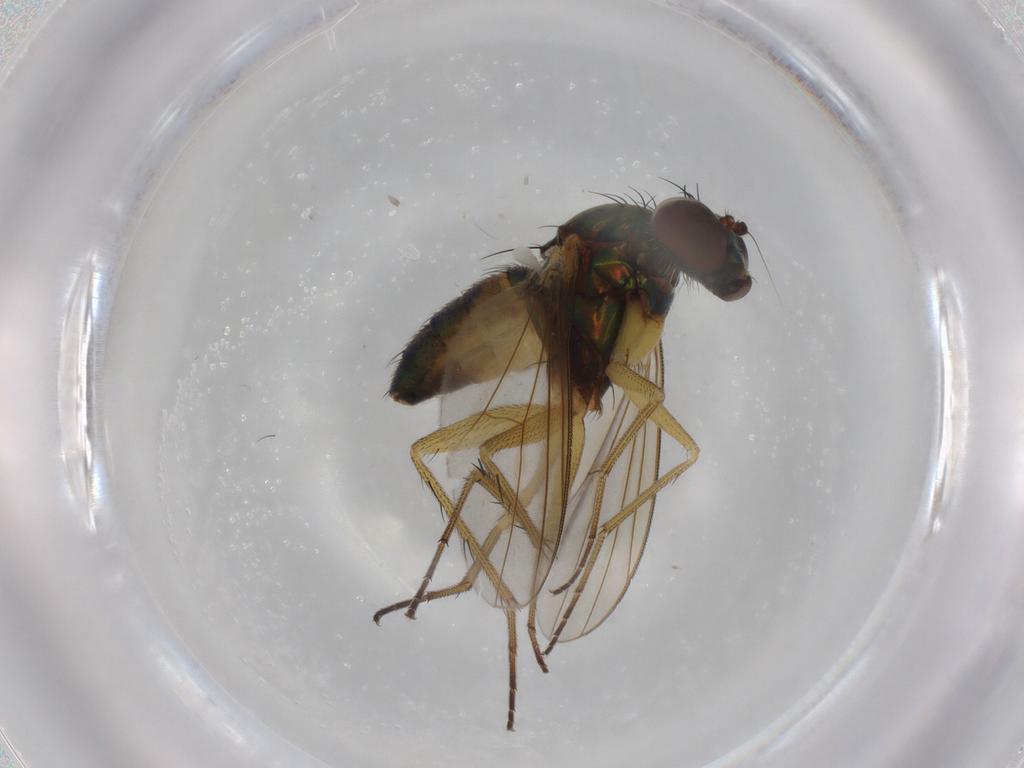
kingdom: Animalia
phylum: Arthropoda
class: Insecta
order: Diptera
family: Dolichopodidae
